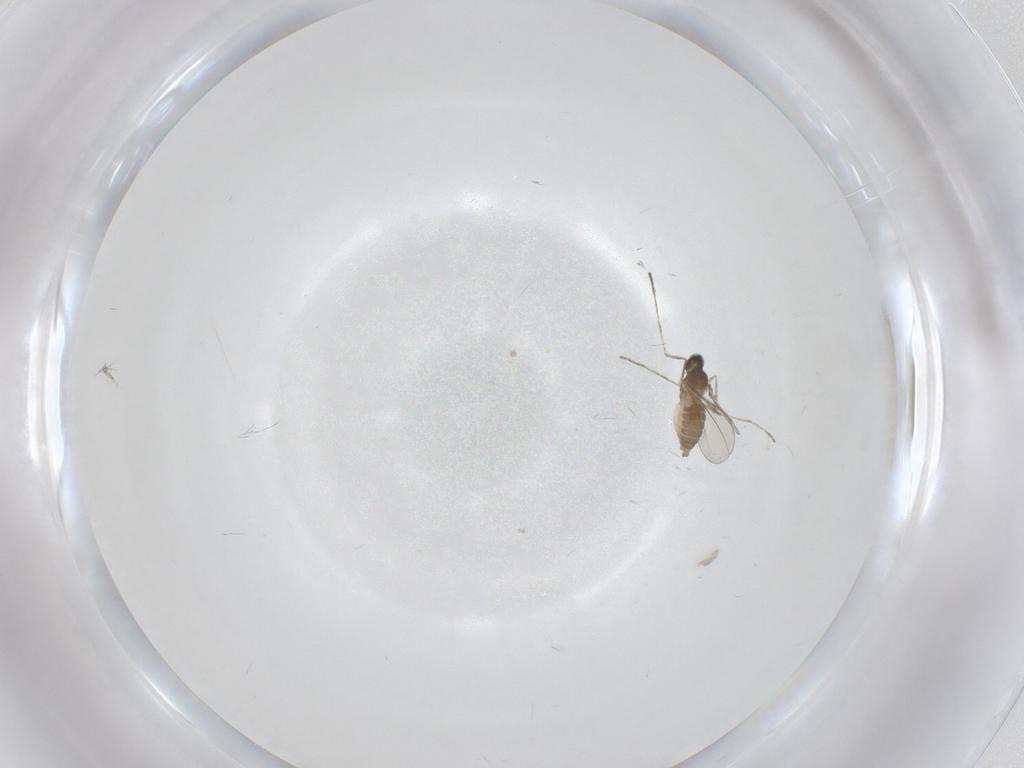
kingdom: Animalia
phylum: Arthropoda
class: Insecta
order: Diptera
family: Cecidomyiidae
